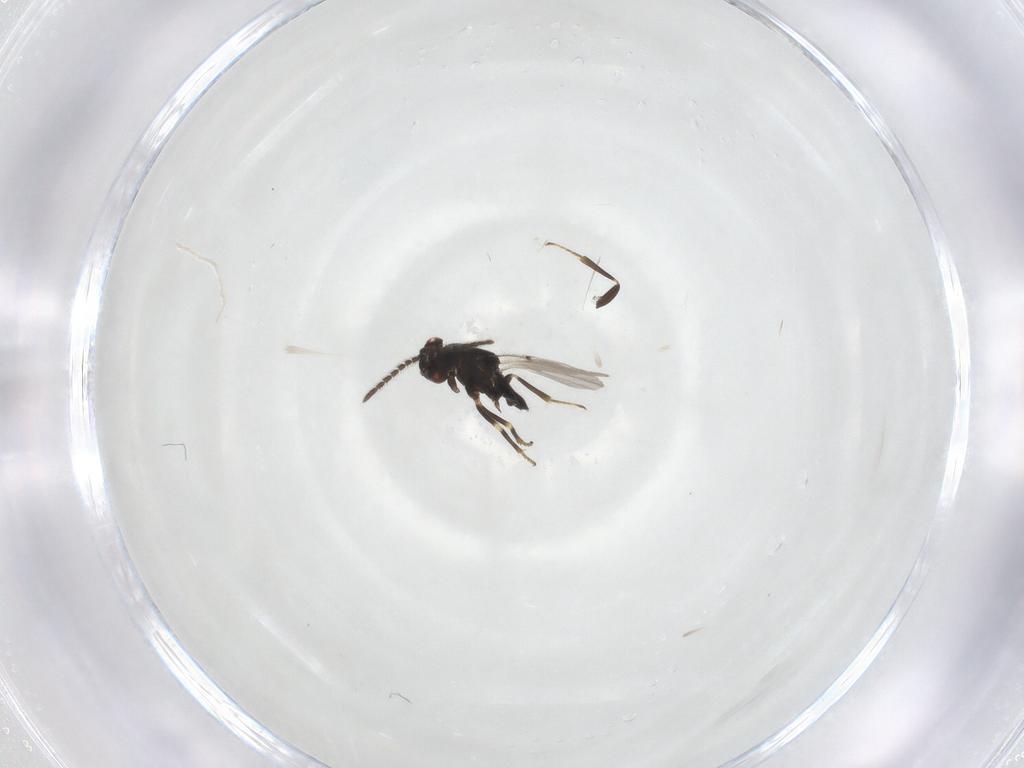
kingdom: Animalia
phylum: Arthropoda
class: Insecta
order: Hymenoptera
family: Encyrtidae
